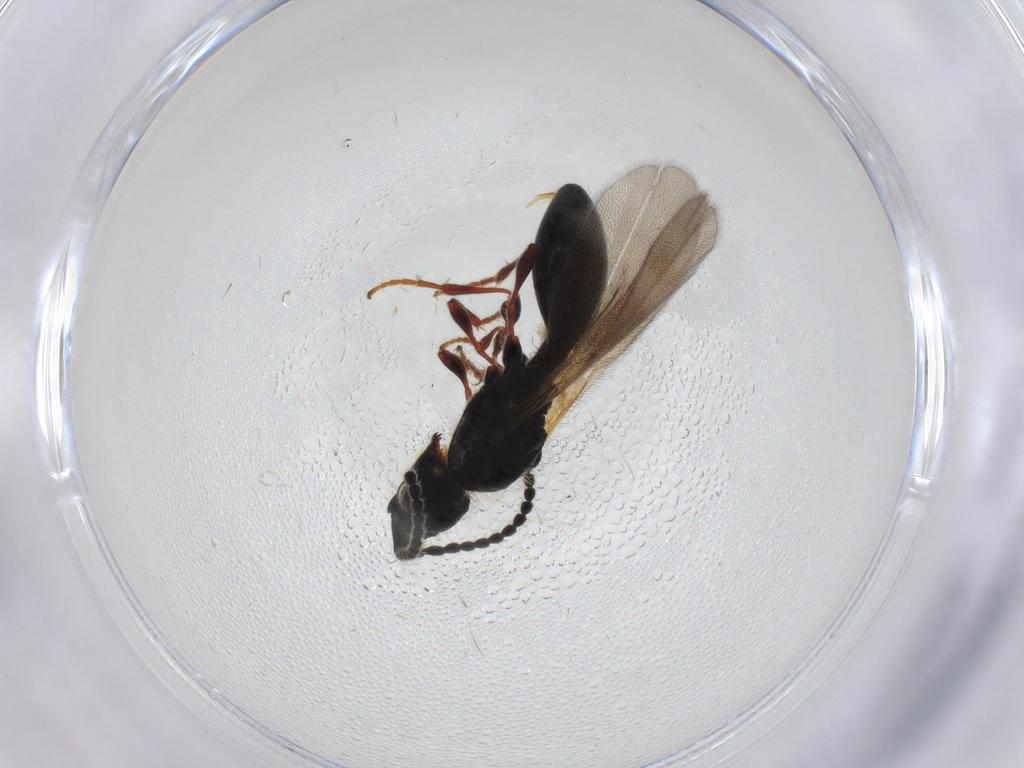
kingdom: Animalia
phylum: Arthropoda
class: Insecta
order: Hymenoptera
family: Diapriidae
